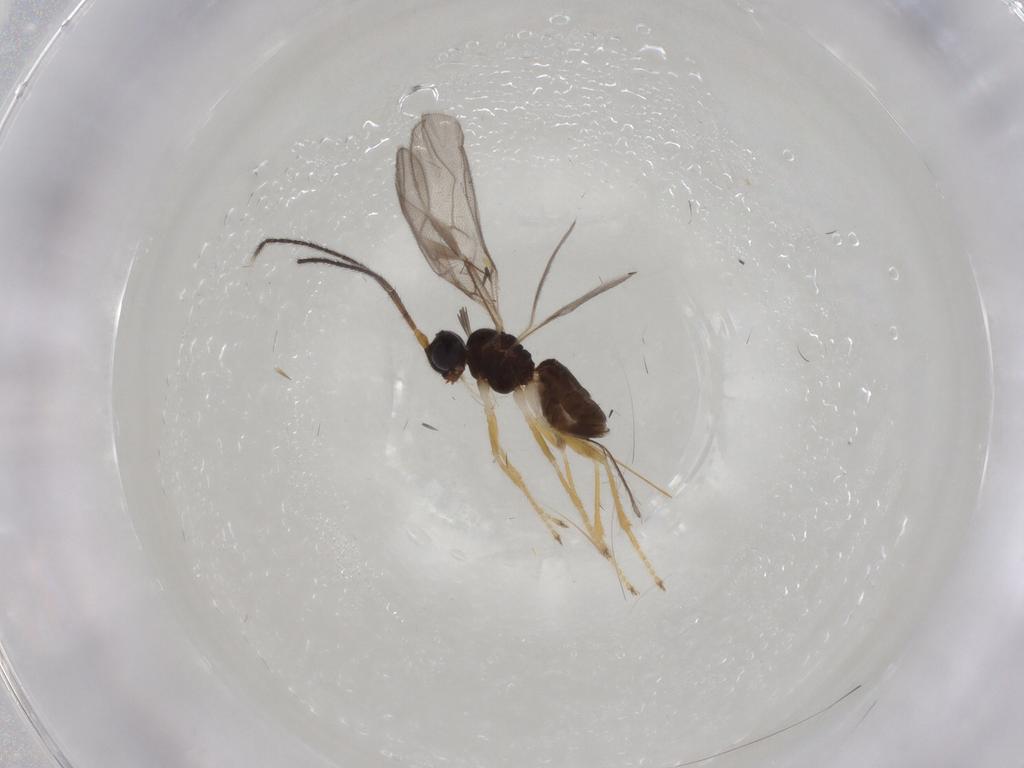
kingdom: Animalia
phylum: Arthropoda
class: Insecta
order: Hymenoptera
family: Braconidae
